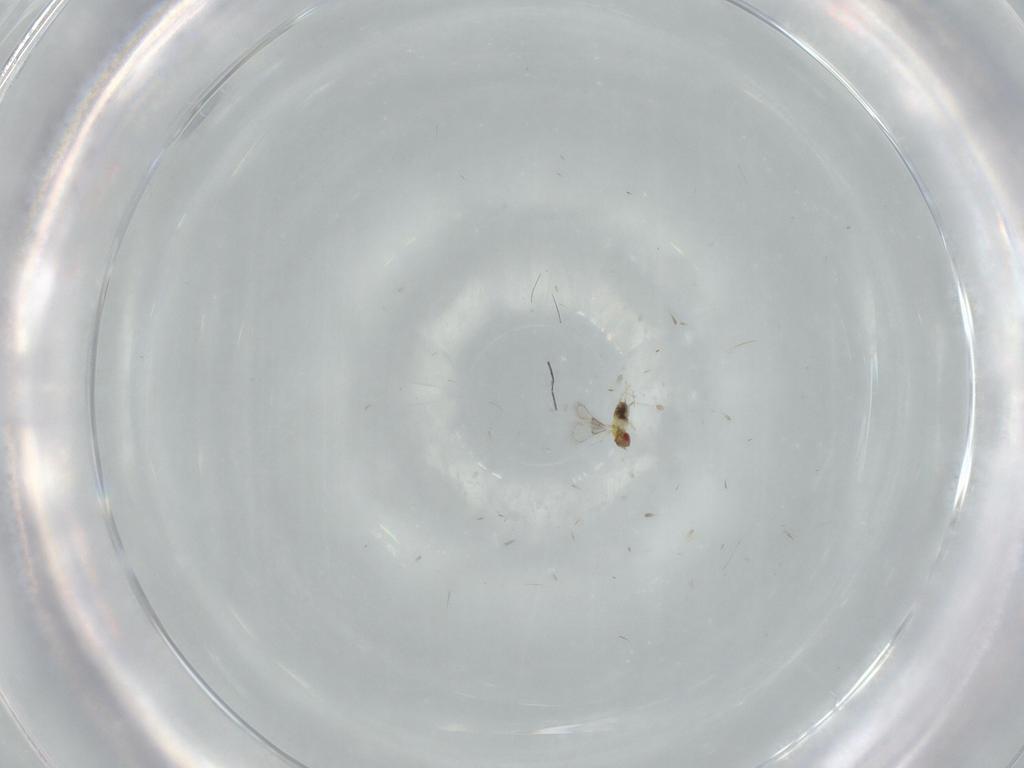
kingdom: Animalia
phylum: Arthropoda
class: Insecta
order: Hymenoptera
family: Trichogrammatidae
